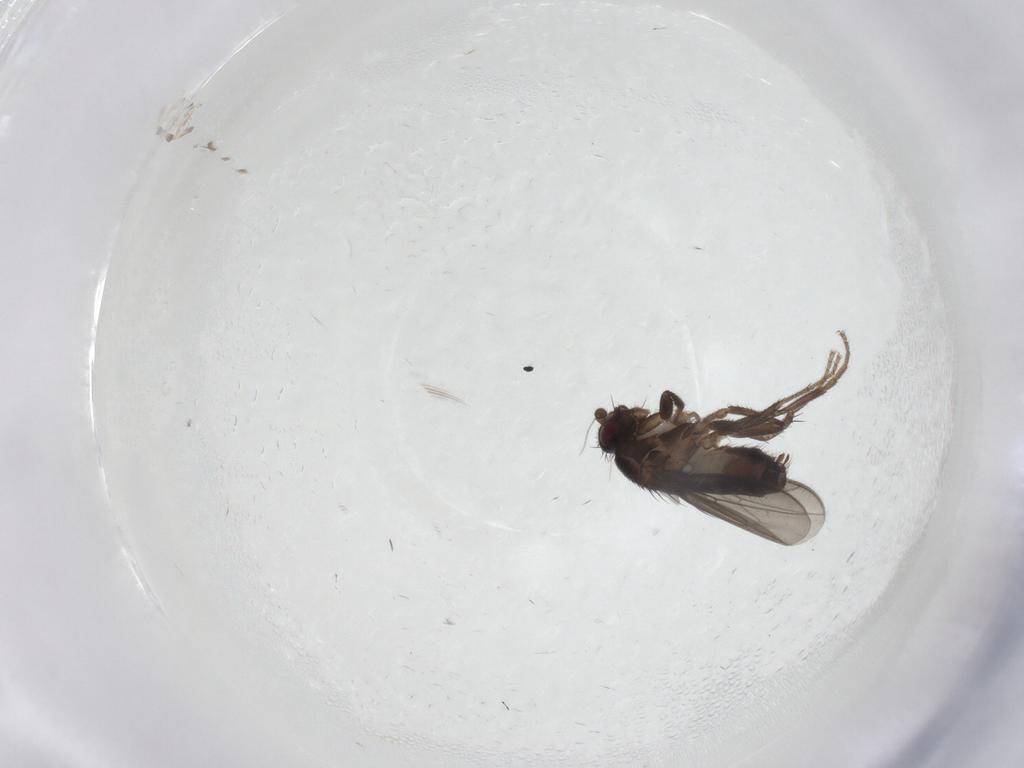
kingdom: Animalia
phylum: Arthropoda
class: Insecta
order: Diptera
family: Sphaeroceridae
